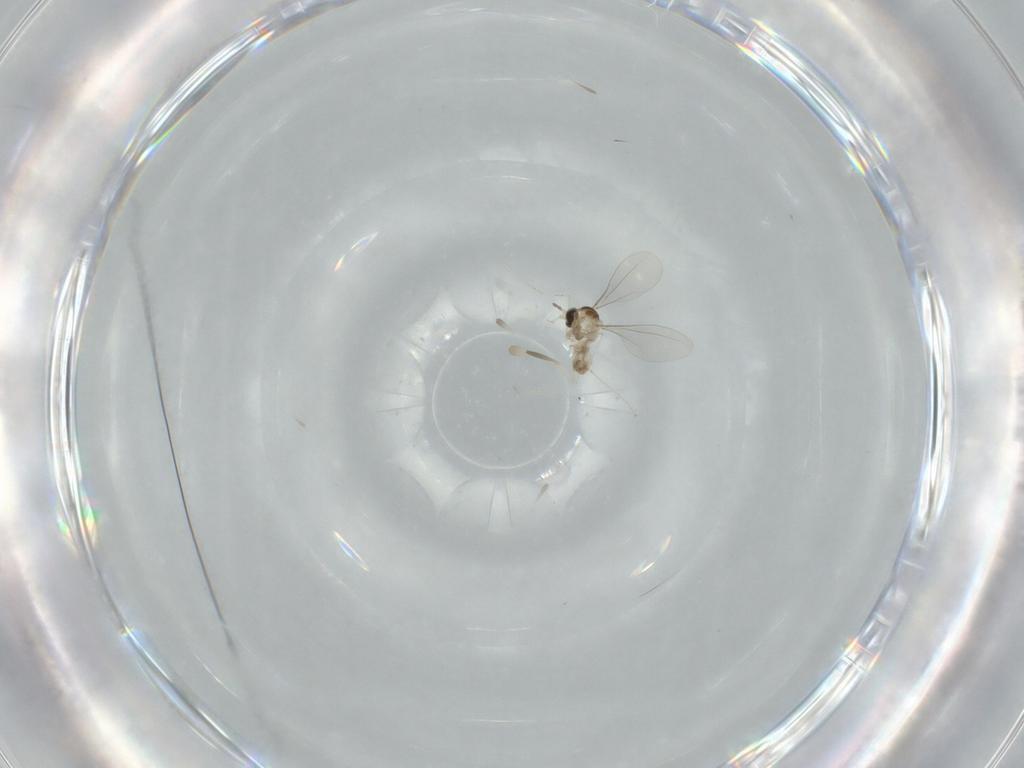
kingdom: Animalia
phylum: Arthropoda
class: Insecta
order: Diptera
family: Cecidomyiidae
